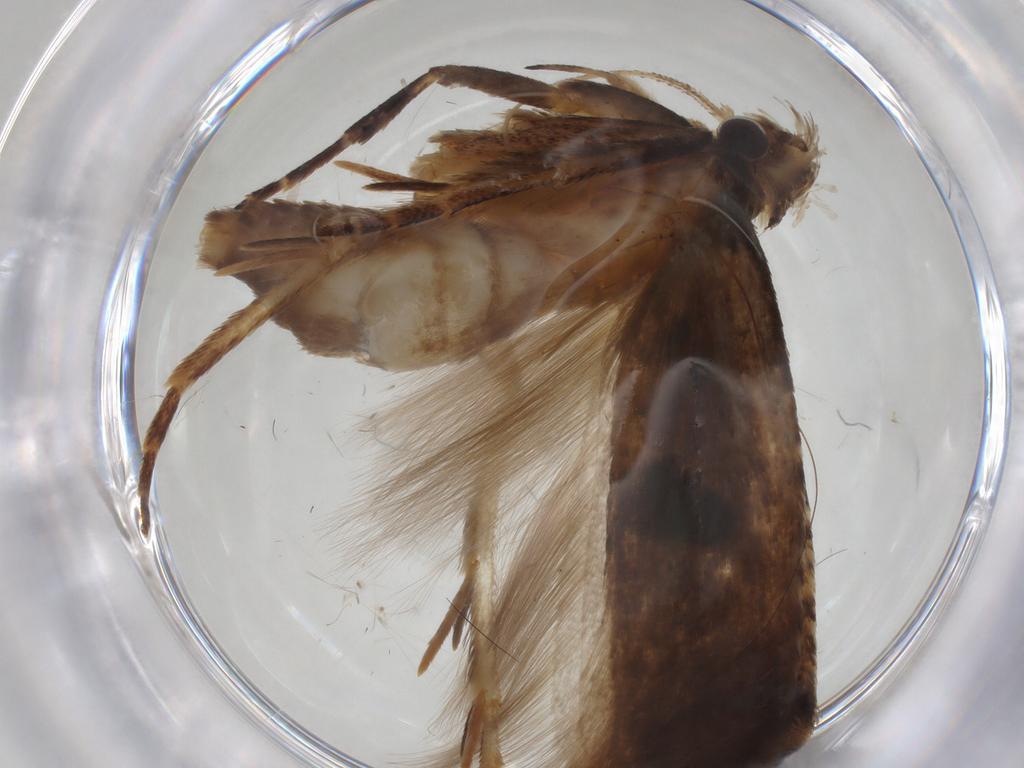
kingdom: Animalia
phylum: Arthropoda
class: Insecta
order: Lepidoptera
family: Gelechiidae
